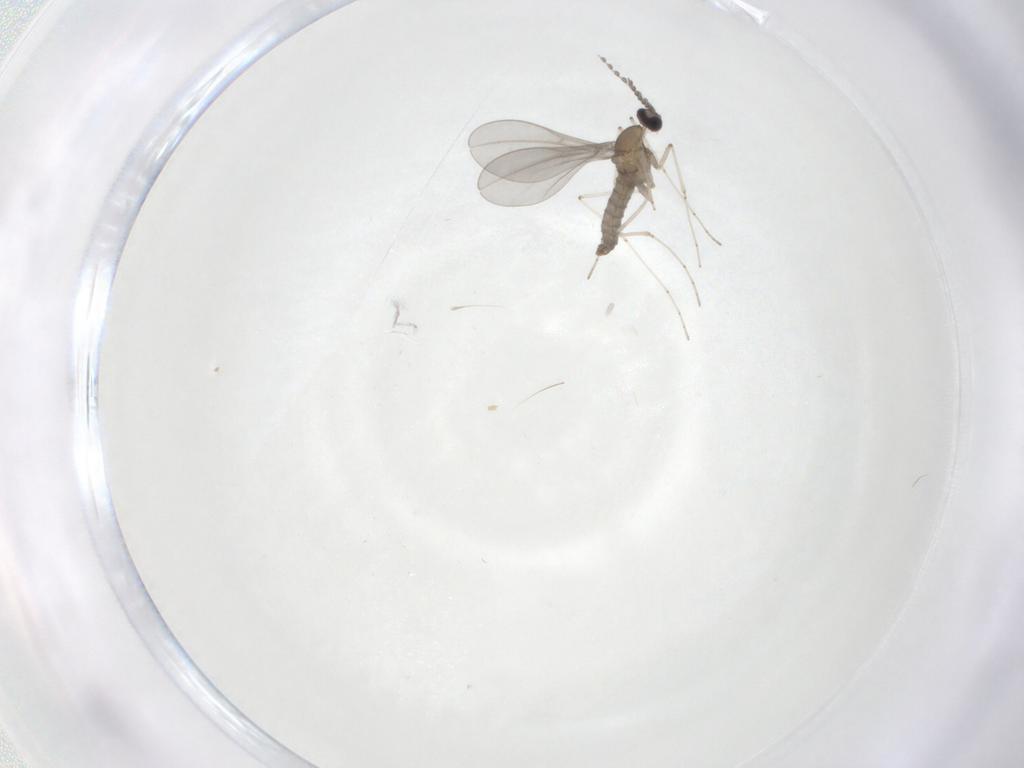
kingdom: Animalia
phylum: Arthropoda
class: Insecta
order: Diptera
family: Cecidomyiidae
